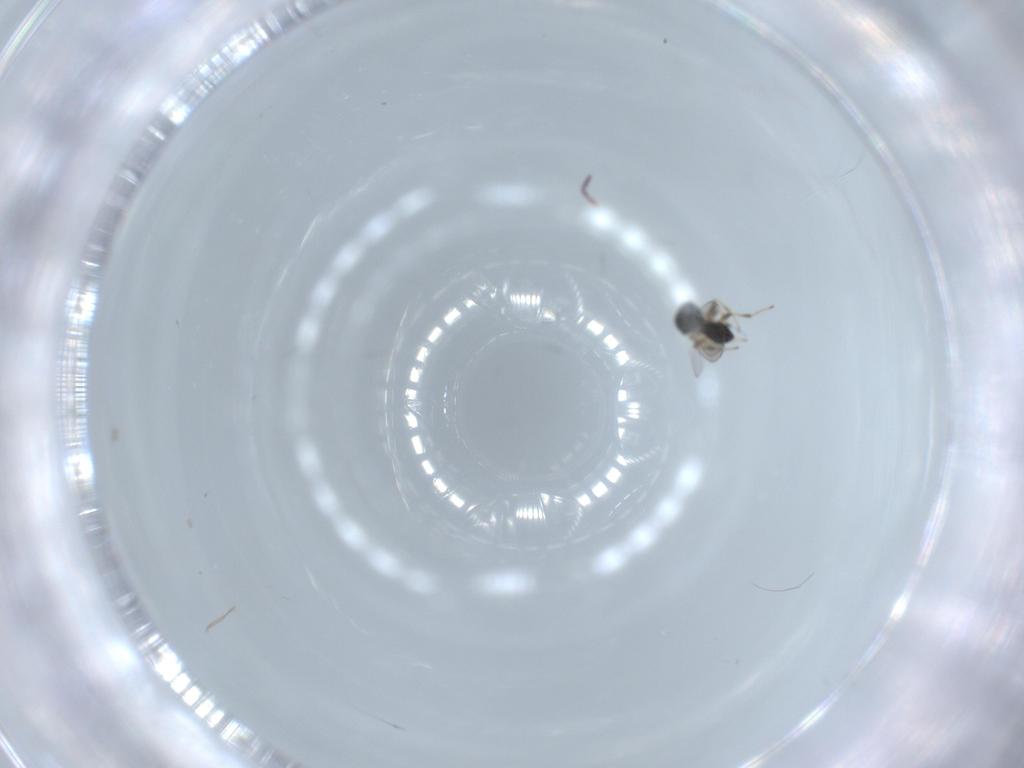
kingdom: Animalia
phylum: Arthropoda
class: Insecta
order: Hymenoptera
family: Platygastridae
